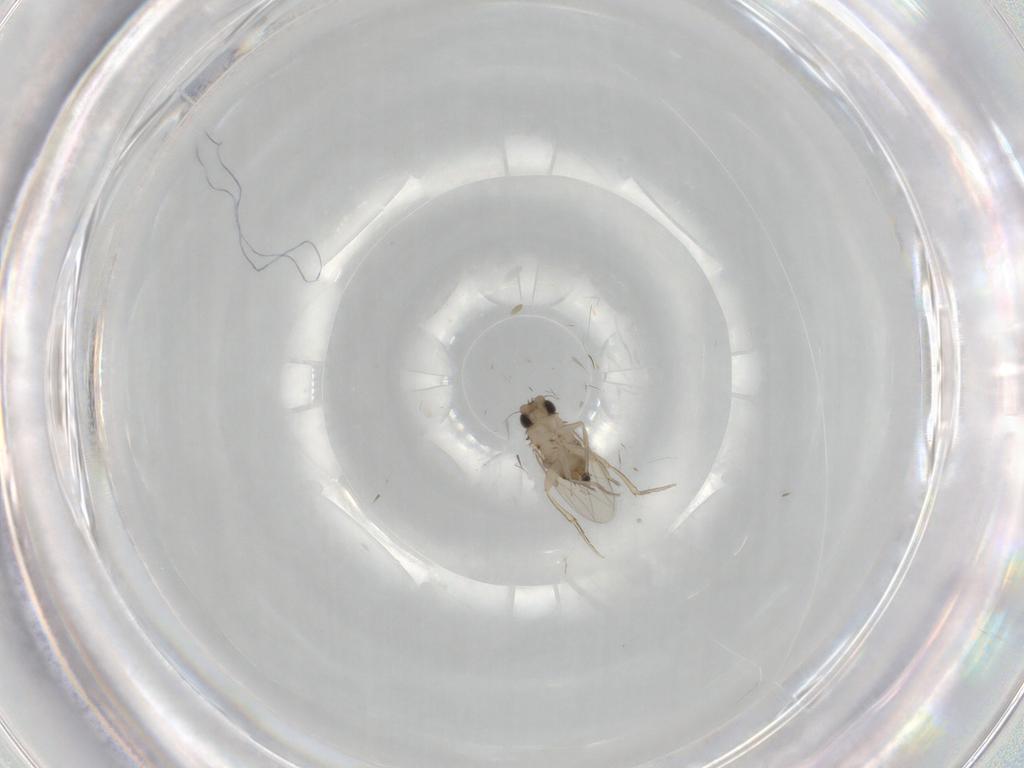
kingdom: Animalia
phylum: Arthropoda
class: Insecta
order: Diptera
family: Phoridae
